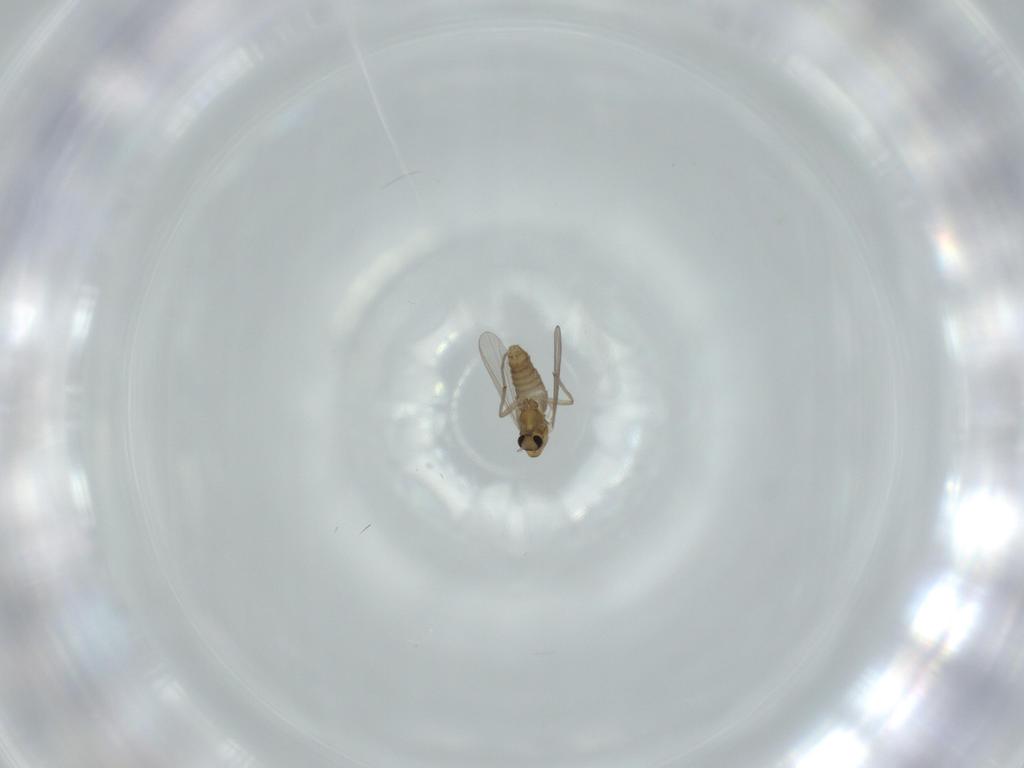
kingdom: Animalia
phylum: Arthropoda
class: Insecta
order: Diptera
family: Chironomidae
